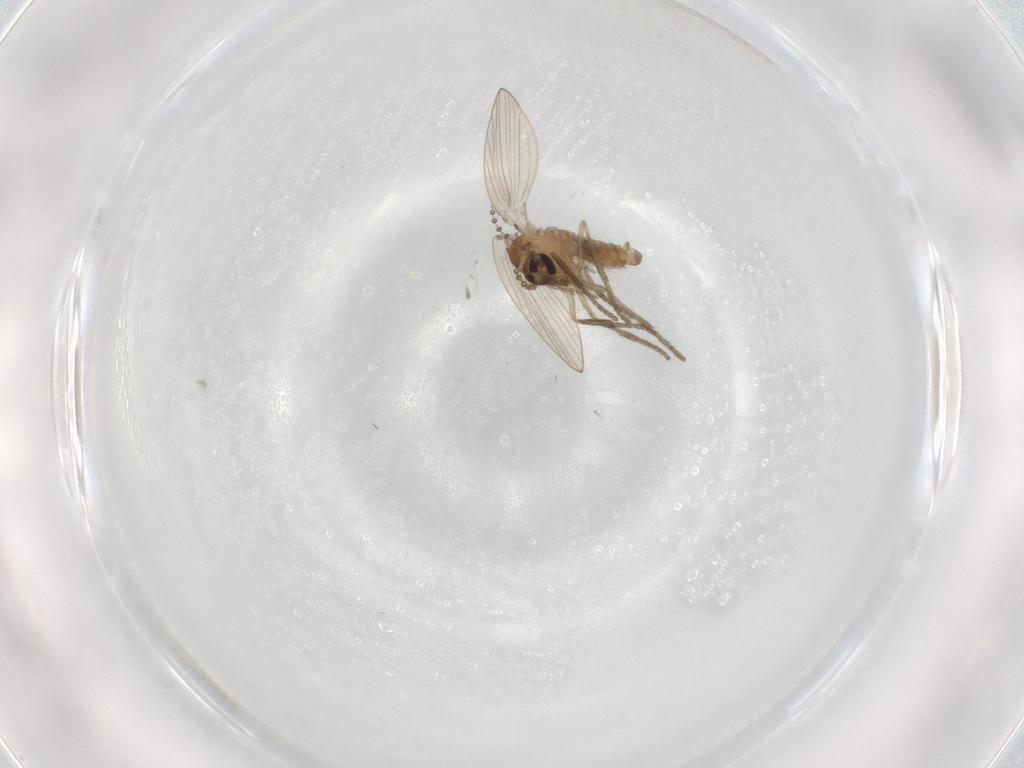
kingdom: Animalia
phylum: Arthropoda
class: Insecta
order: Diptera
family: Psychodidae
